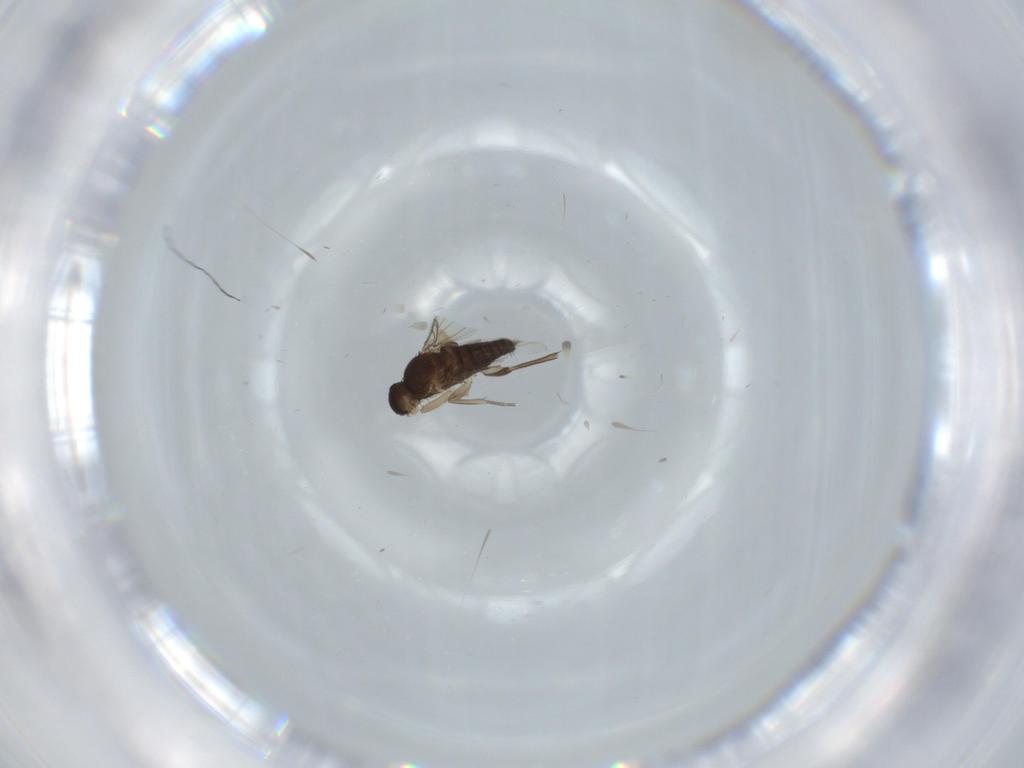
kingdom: Animalia
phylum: Arthropoda
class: Insecta
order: Diptera
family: Phoridae
